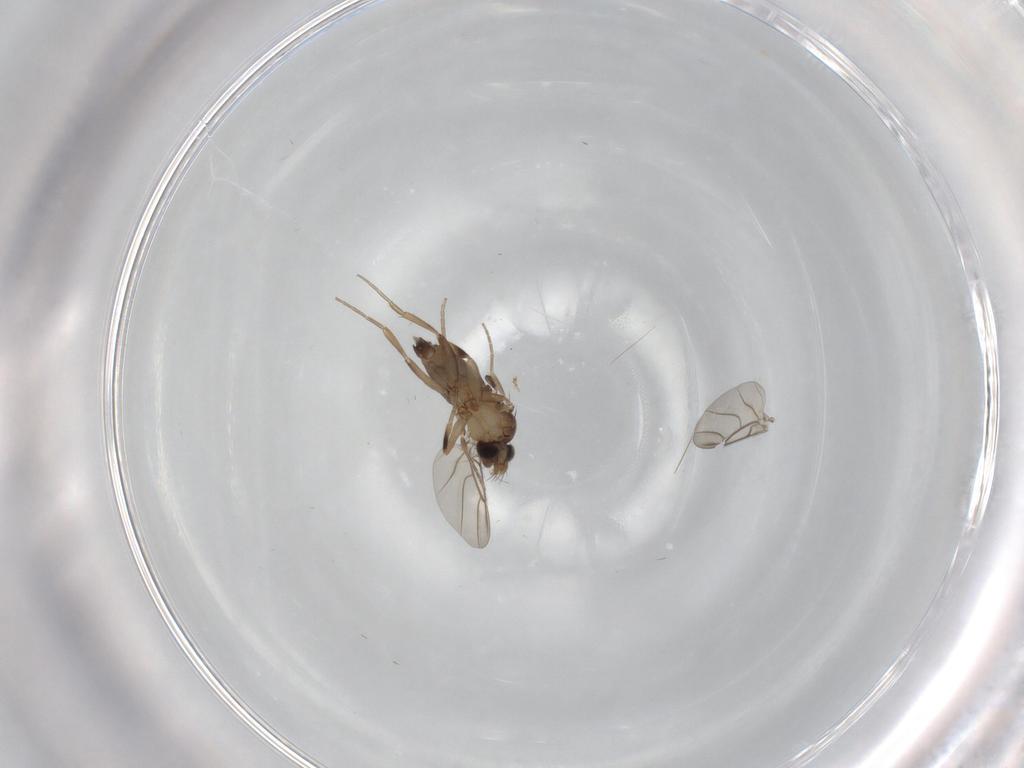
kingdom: Animalia
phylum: Arthropoda
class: Insecta
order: Diptera
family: Phoridae
